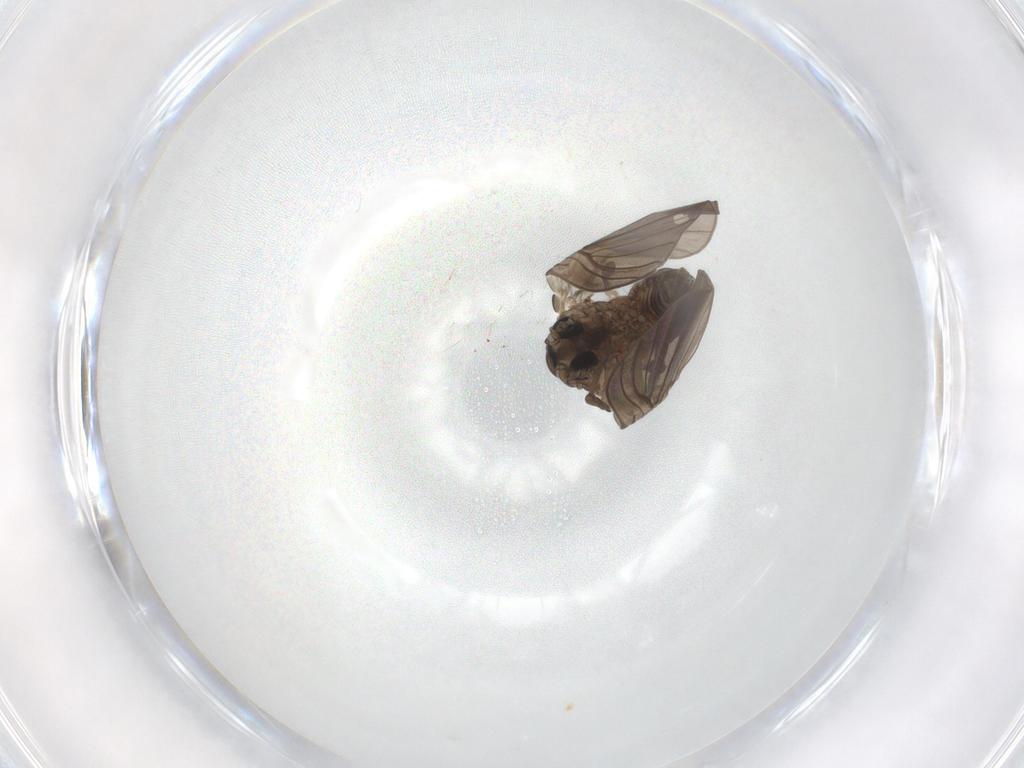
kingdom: Animalia
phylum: Arthropoda
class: Insecta
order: Diptera
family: Psychodidae
